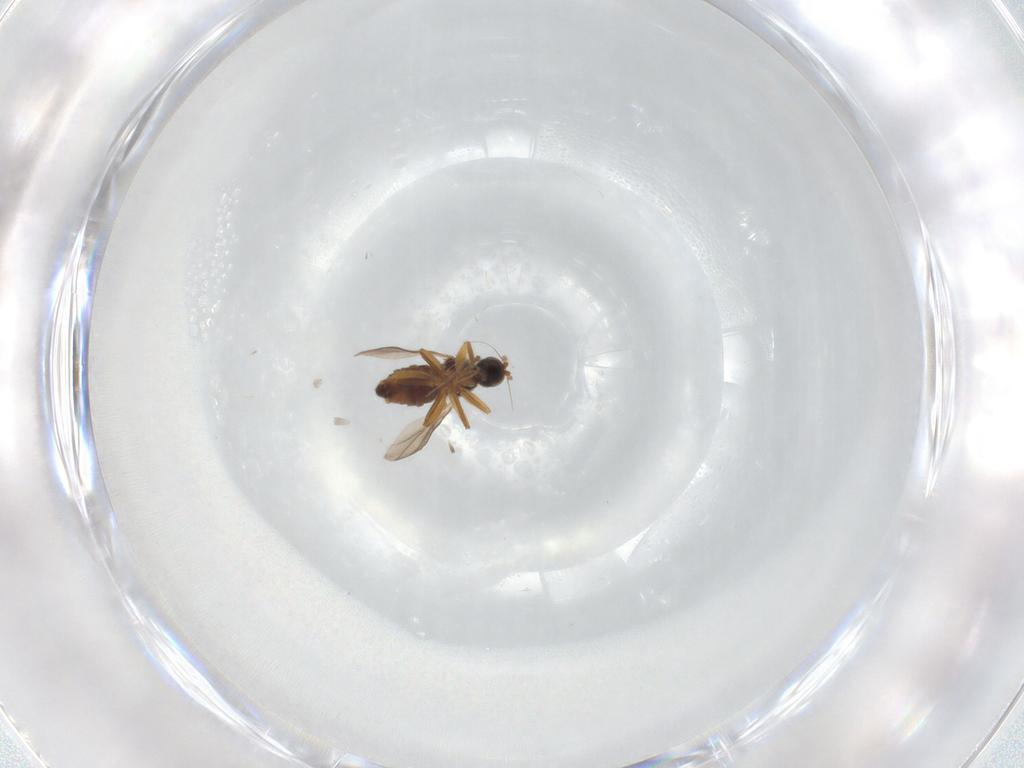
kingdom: Animalia
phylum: Arthropoda
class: Insecta
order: Diptera
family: Hybotidae
